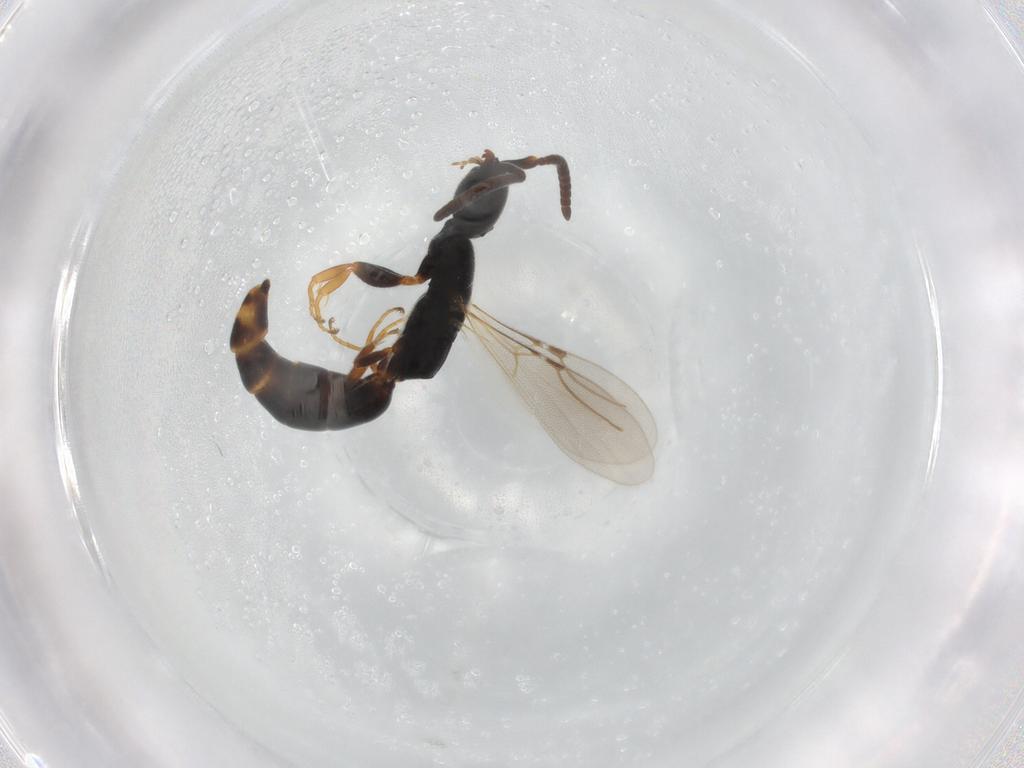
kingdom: Animalia
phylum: Arthropoda
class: Insecta
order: Hymenoptera
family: Bethylidae
